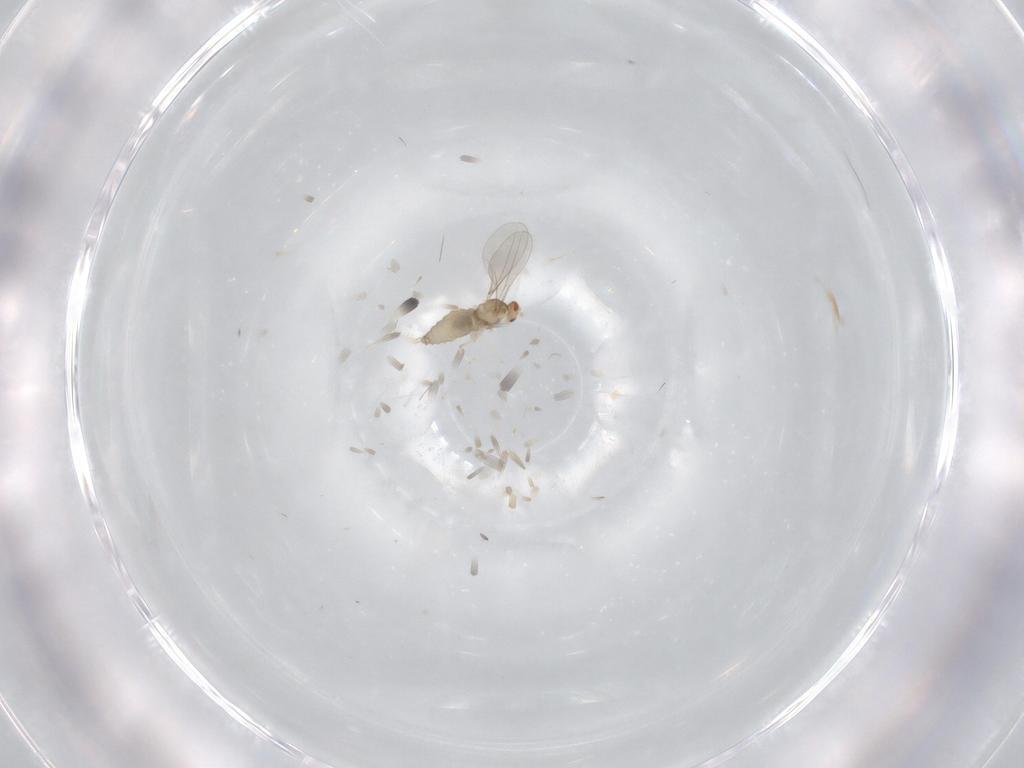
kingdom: Animalia
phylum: Arthropoda
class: Insecta
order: Diptera
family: Cecidomyiidae
